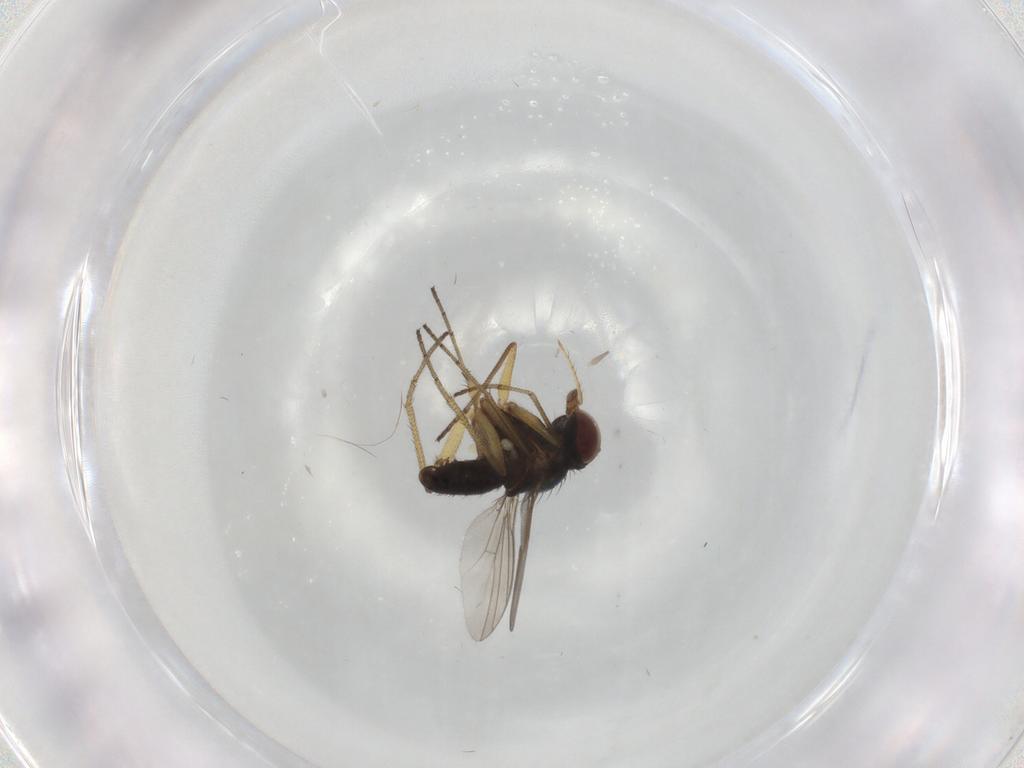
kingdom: Animalia
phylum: Arthropoda
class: Insecta
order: Diptera
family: Dolichopodidae
